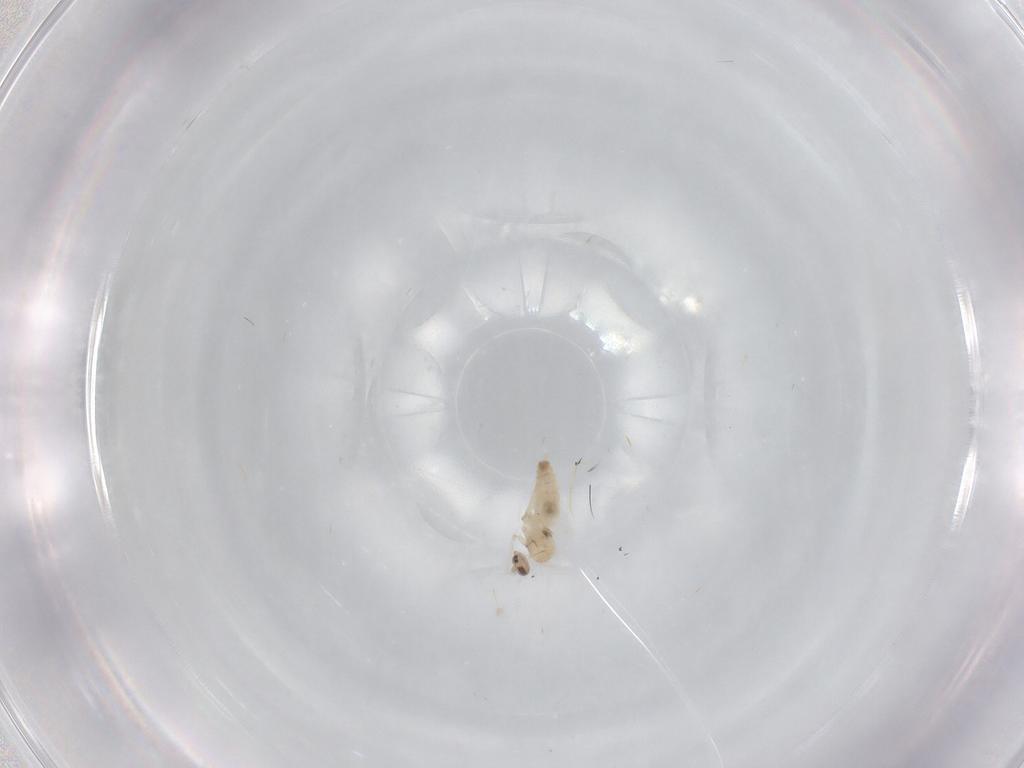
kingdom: Animalia
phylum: Arthropoda
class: Insecta
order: Diptera
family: Cecidomyiidae
